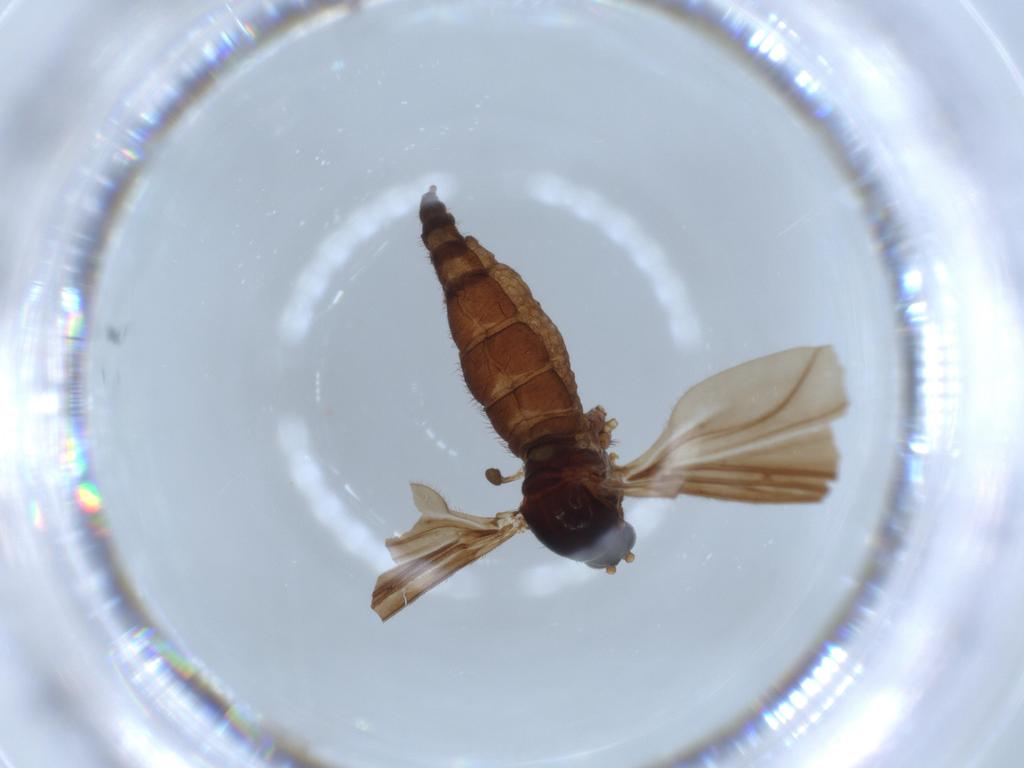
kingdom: Animalia
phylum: Arthropoda
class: Insecta
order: Diptera
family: Sciaridae
